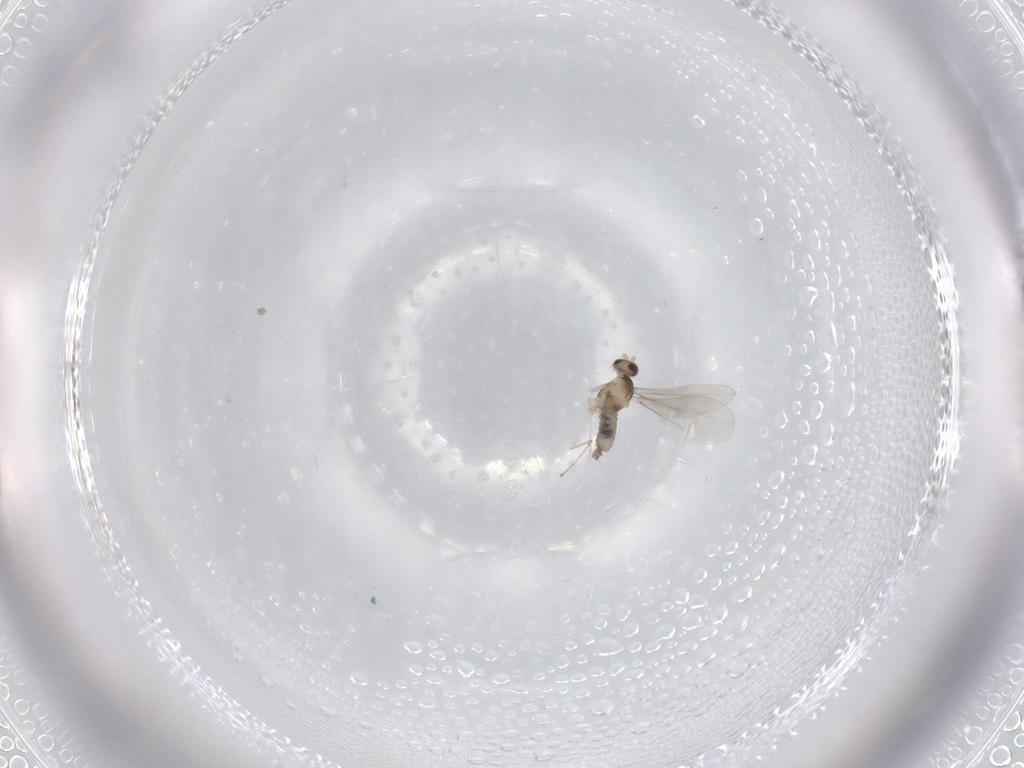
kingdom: Animalia
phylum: Arthropoda
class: Insecta
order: Diptera
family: Cecidomyiidae
